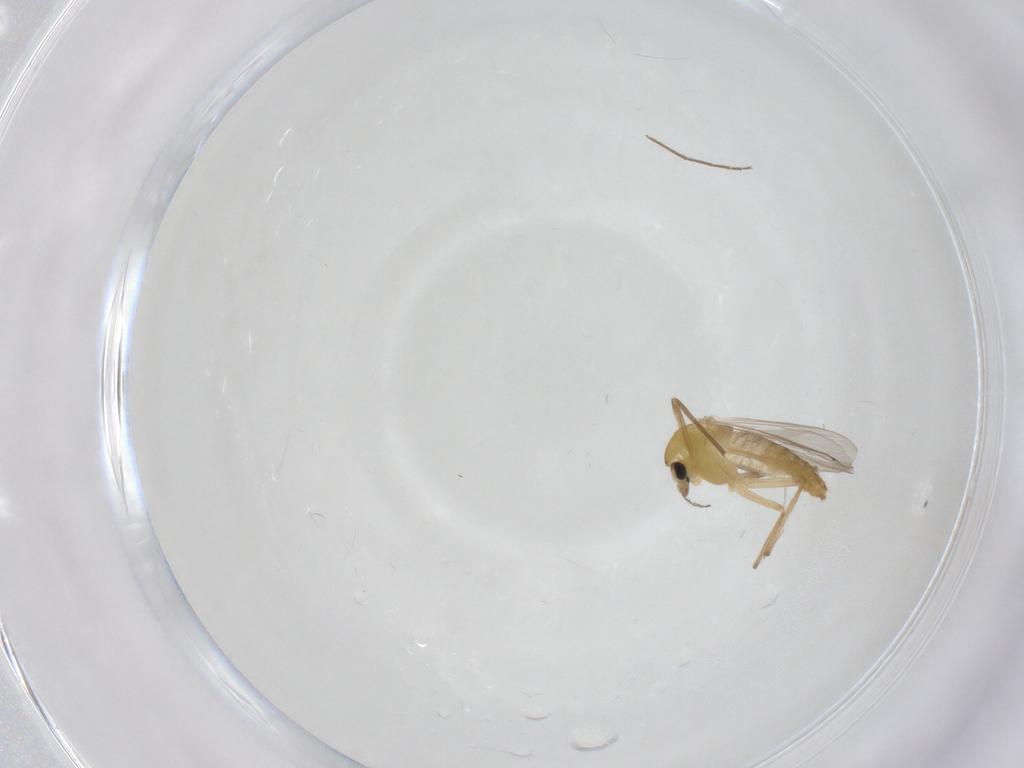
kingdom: Animalia
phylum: Arthropoda
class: Insecta
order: Diptera
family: Chironomidae
